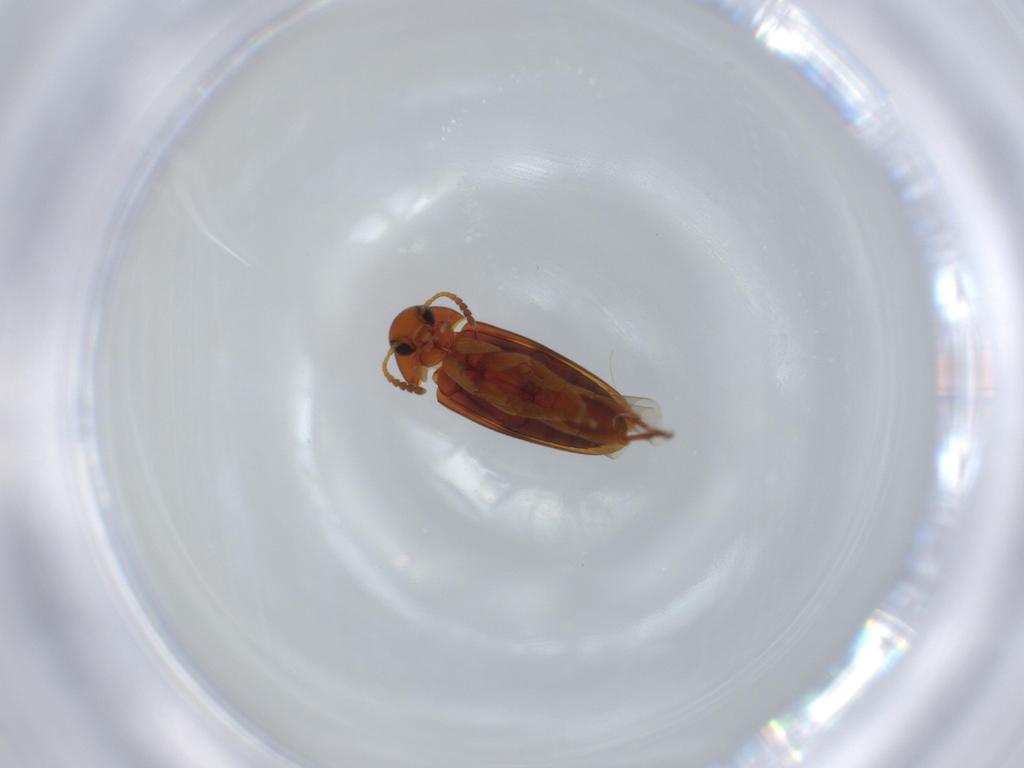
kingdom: Animalia
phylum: Arthropoda
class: Insecta
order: Coleoptera
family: Scraptiidae
